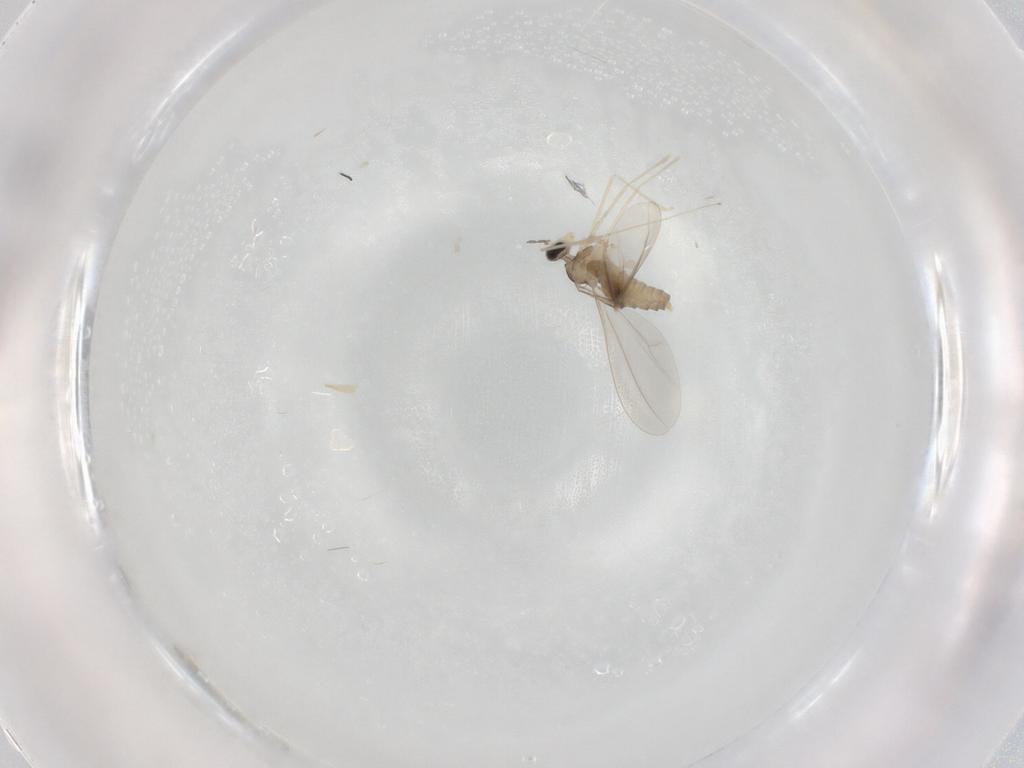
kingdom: Animalia
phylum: Arthropoda
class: Insecta
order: Diptera
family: Cecidomyiidae
